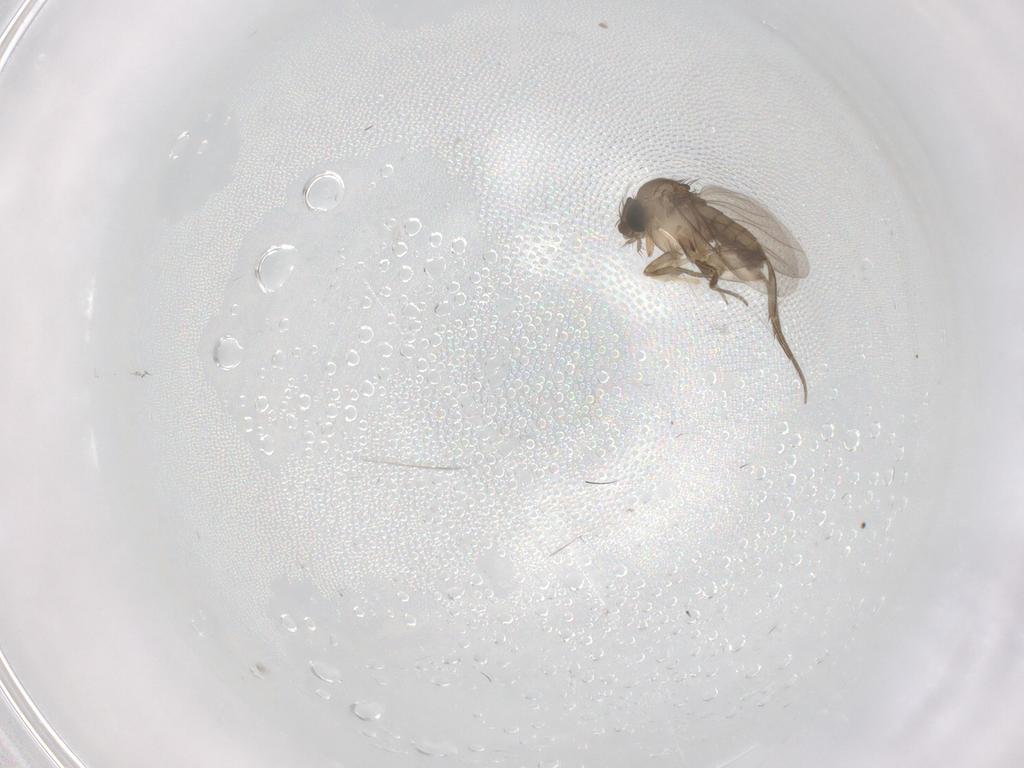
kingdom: Animalia
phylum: Arthropoda
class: Insecta
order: Diptera
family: Phoridae
